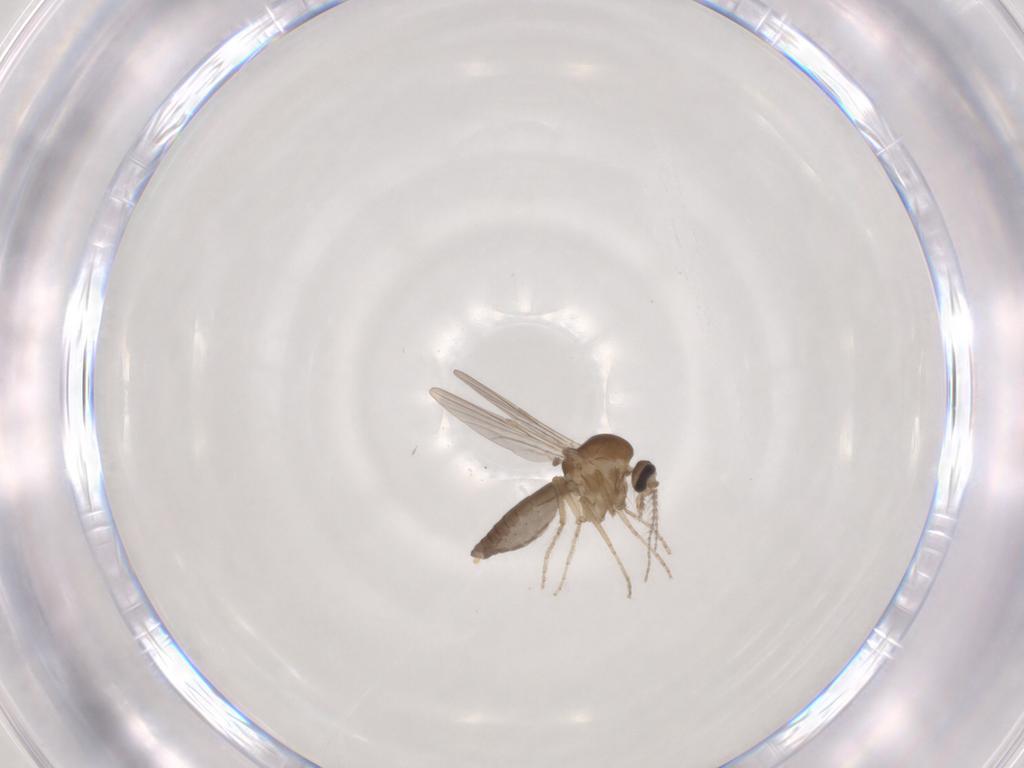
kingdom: Animalia
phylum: Arthropoda
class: Insecta
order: Diptera
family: Ceratopogonidae
